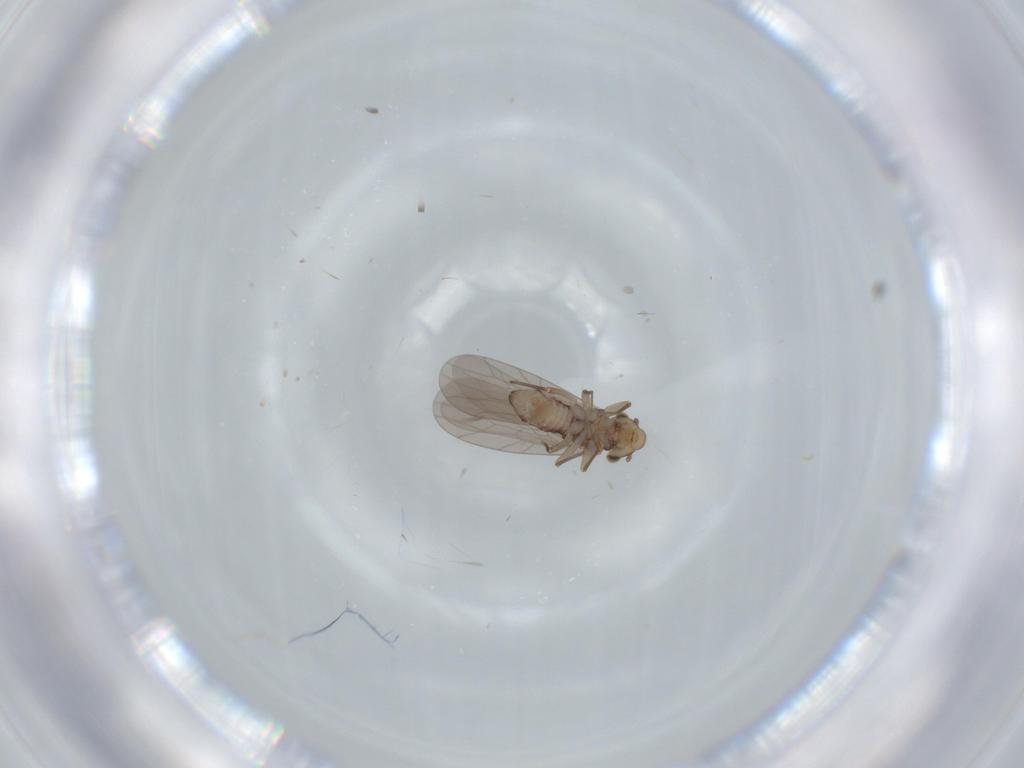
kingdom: Animalia
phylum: Arthropoda
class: Insecta
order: Psocodea
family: Lepidopsocidae
